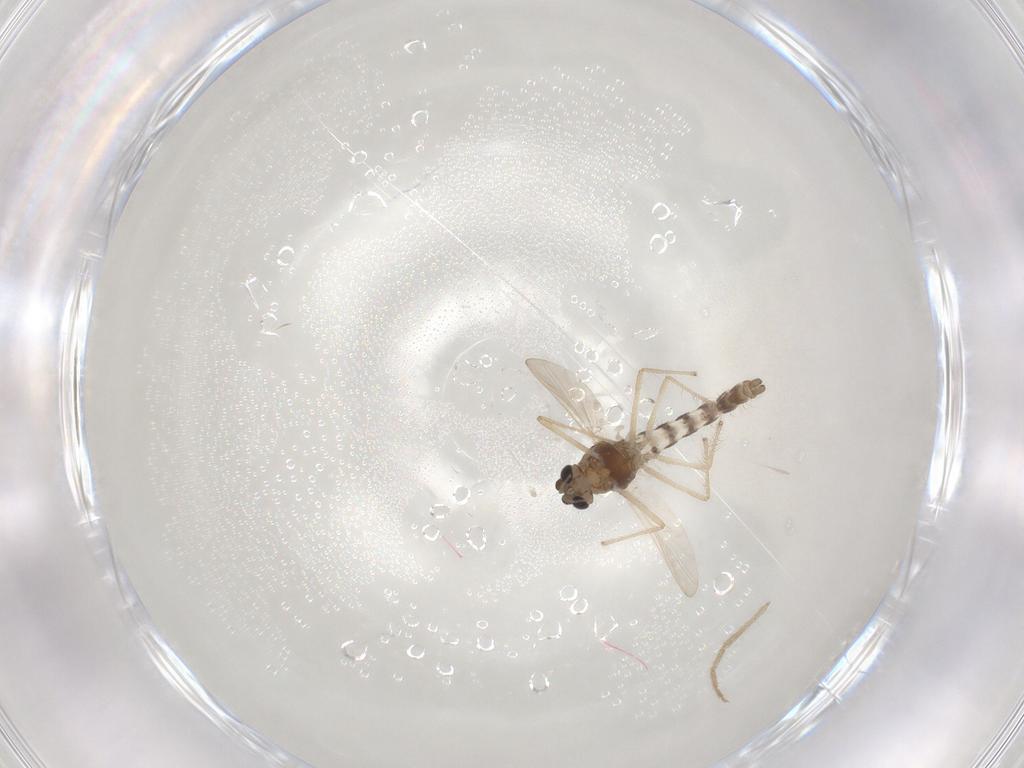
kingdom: Animalia
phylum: Arthropoda
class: Insecta
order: Diptera
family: Chironomidae
